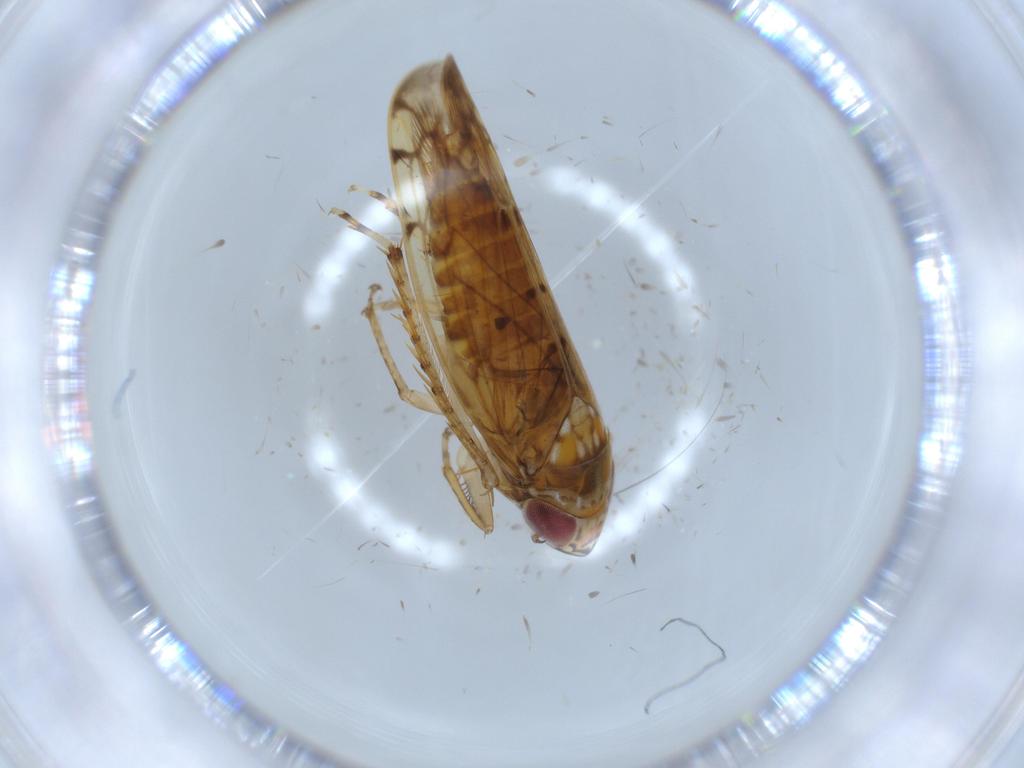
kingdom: Animalia
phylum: Arthropoda
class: Insecta
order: Hemiptera
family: Cicadellidae
